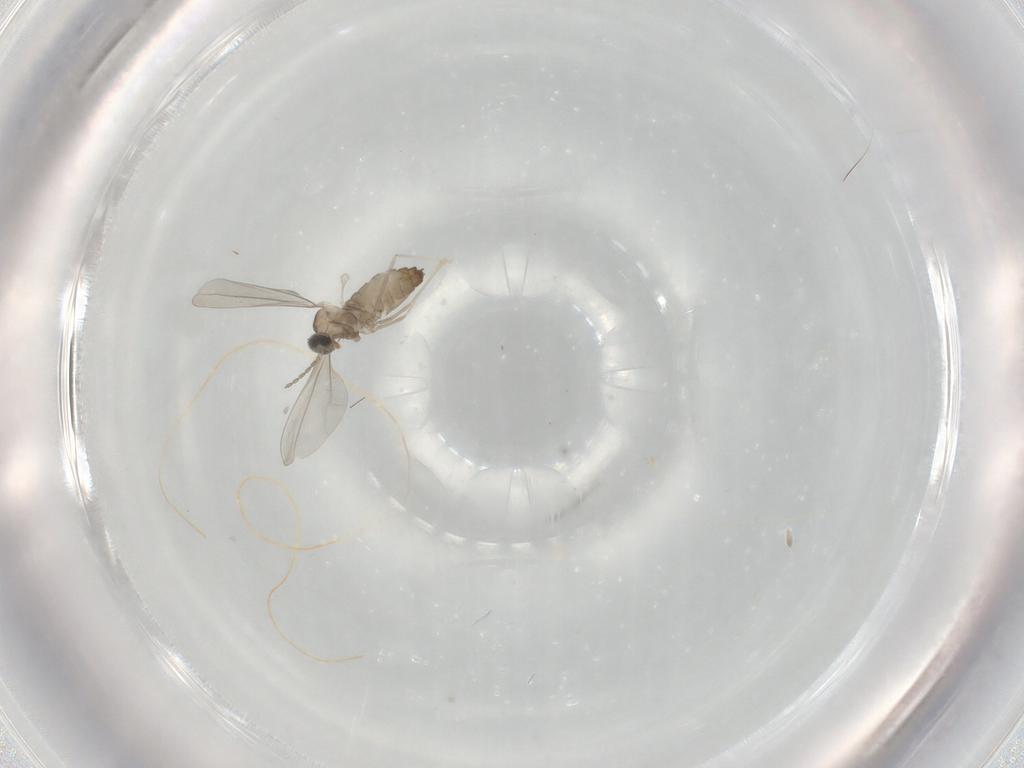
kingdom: Animalia
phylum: Arthropoda
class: Insecta
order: Diptera
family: Cecidomyiidae
